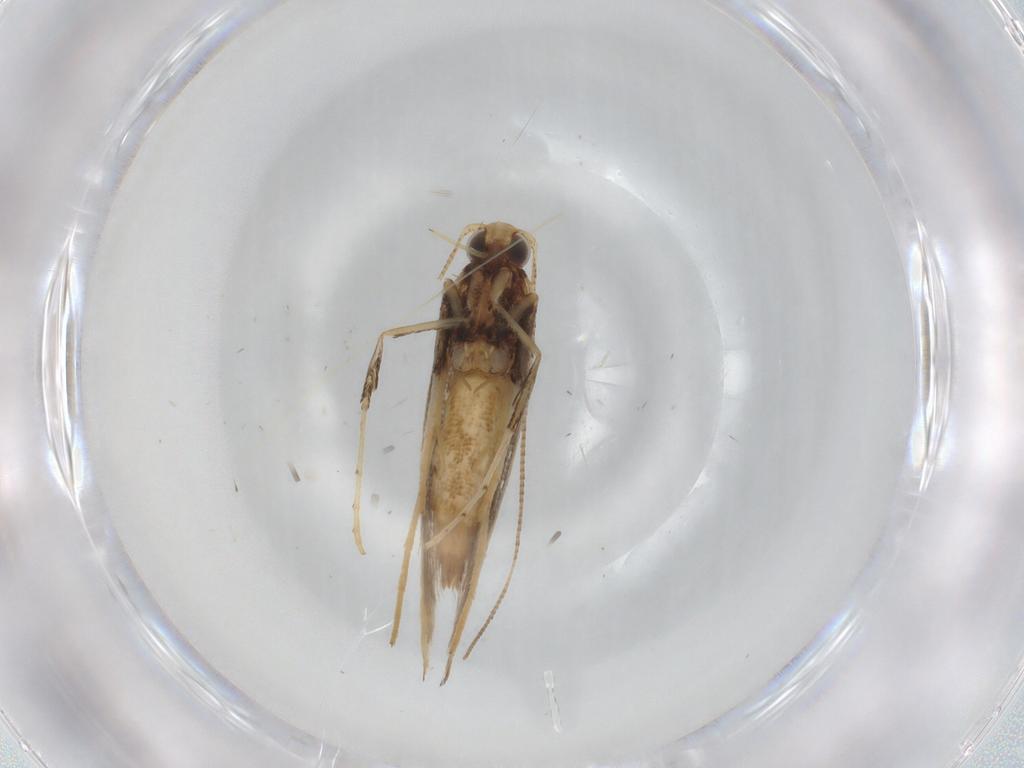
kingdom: Animalia
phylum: Arthropoda
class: Insecta
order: Lepidoptera
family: Gracillariidae
